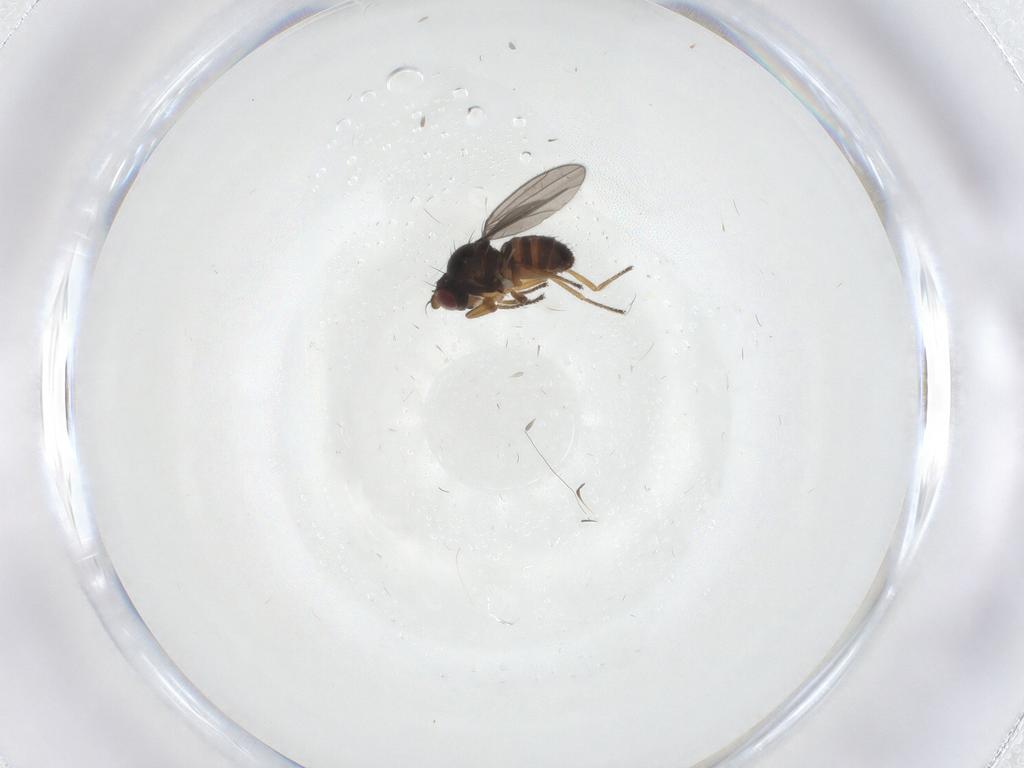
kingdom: Animalia
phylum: Arthropoda
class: Insecta
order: Diptera
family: Ephydridae
